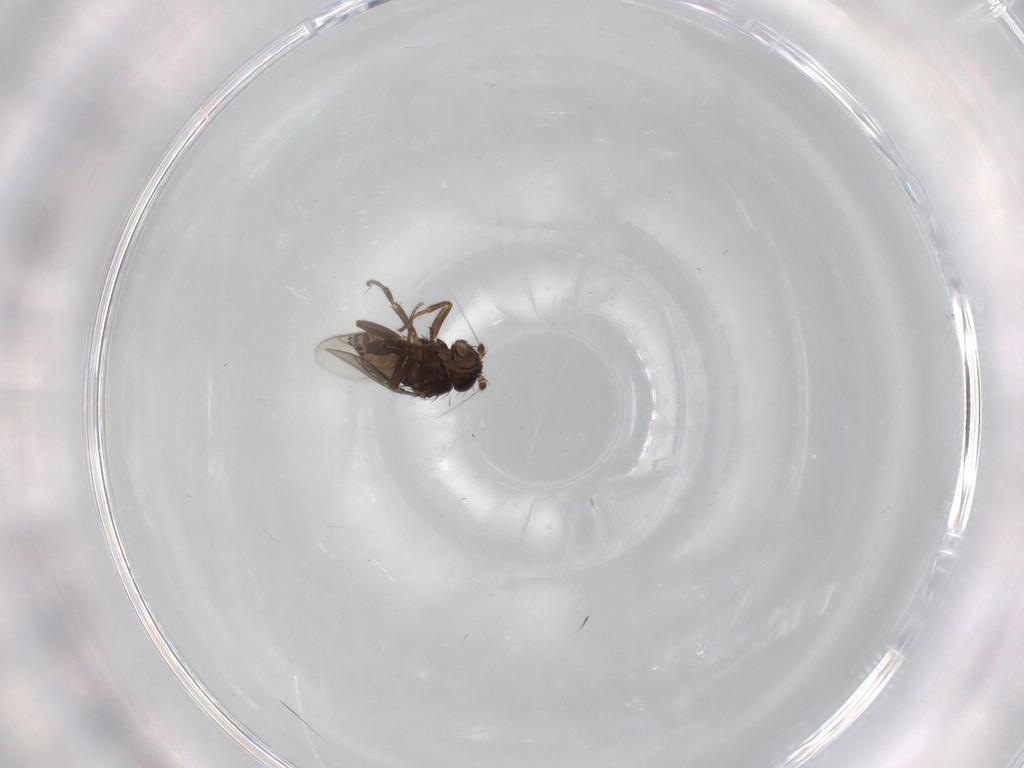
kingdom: Animalia
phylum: Arthropoda
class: Insecta
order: Diptera
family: Sphaeroceridae
